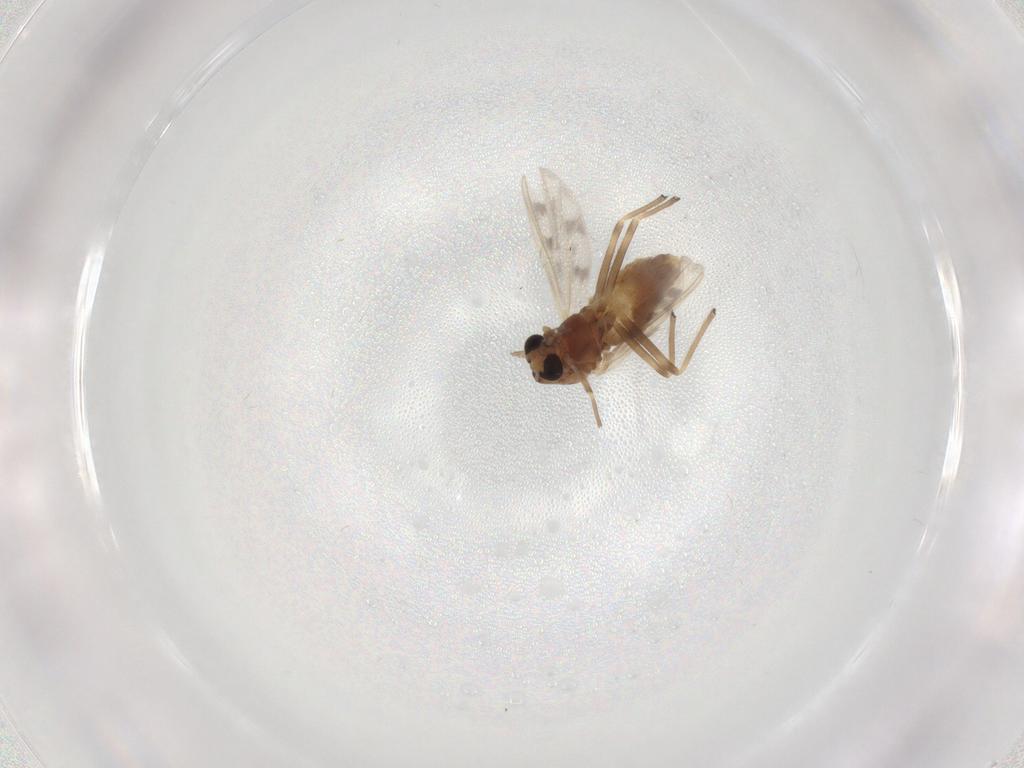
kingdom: Animalia
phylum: Arthropoda
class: Insecta
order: Diptera
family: Chironomidae
